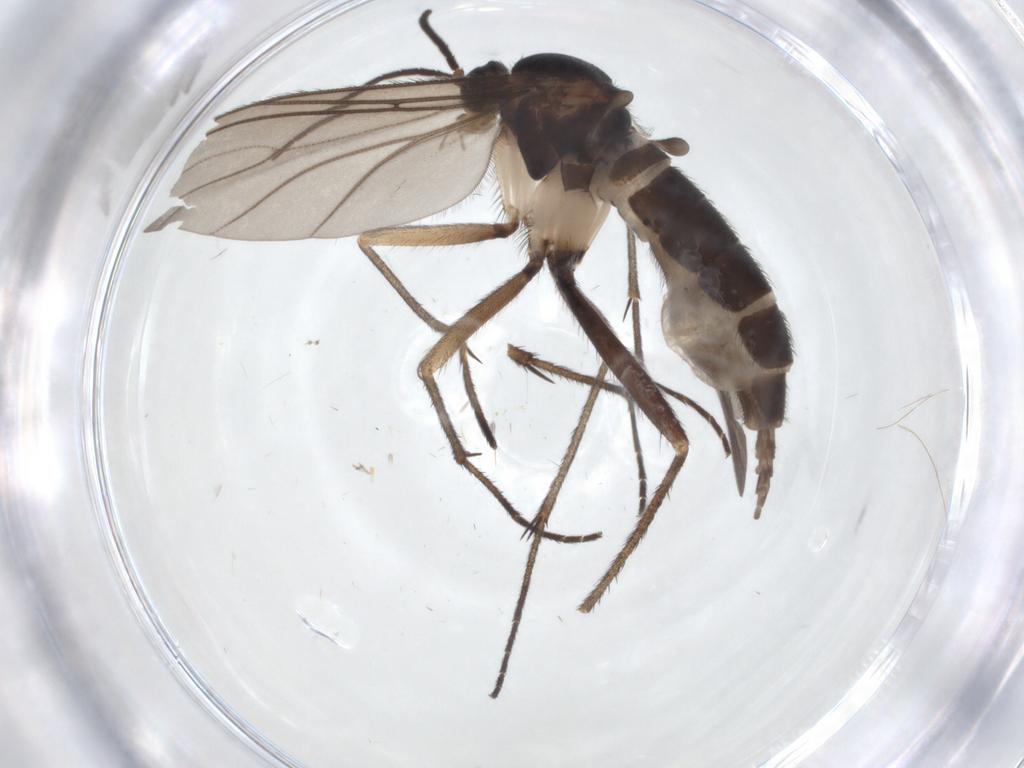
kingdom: Animalia
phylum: Arthropoda
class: Insecta
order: Diptera
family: Sciaridae
